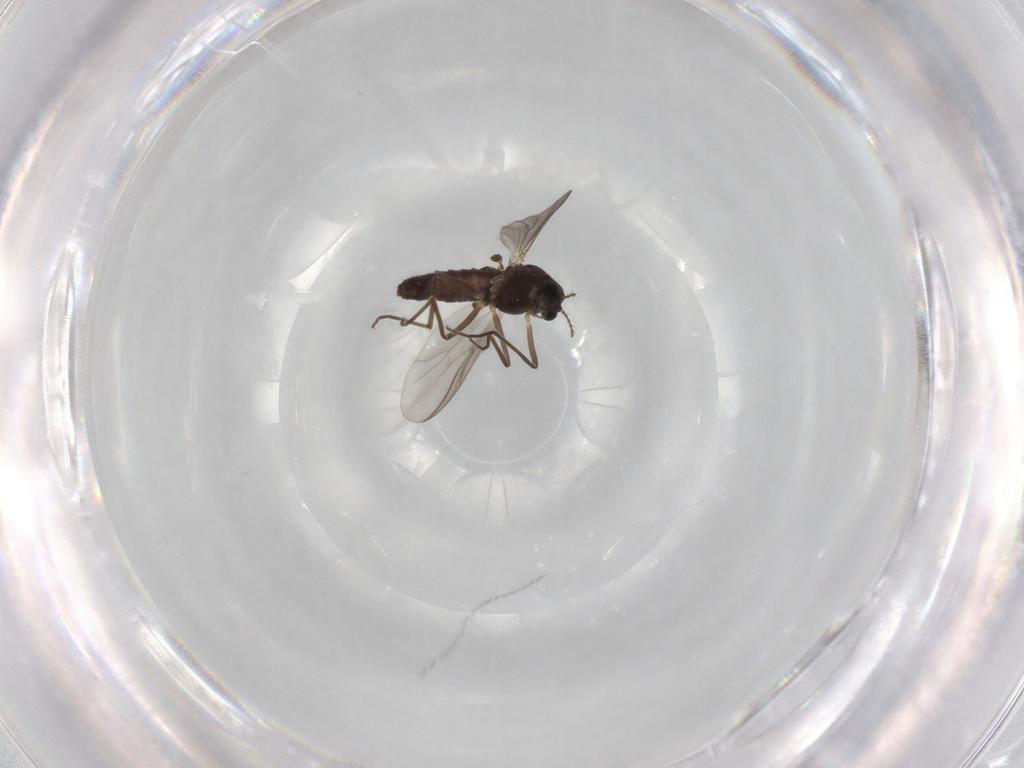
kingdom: Animalia
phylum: Arthropoda
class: Insecta
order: Diptera
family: Chironomidae
